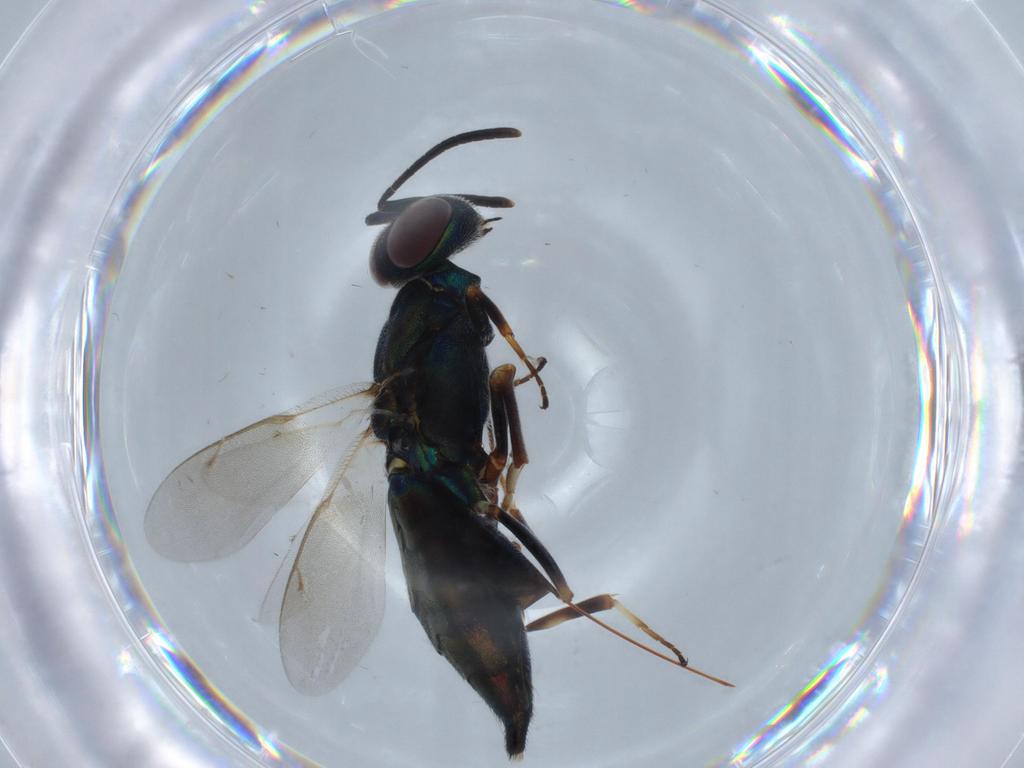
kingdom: Animalia
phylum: Arthropoda
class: Insecta
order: Hymenoptera
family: Eupelmidae
